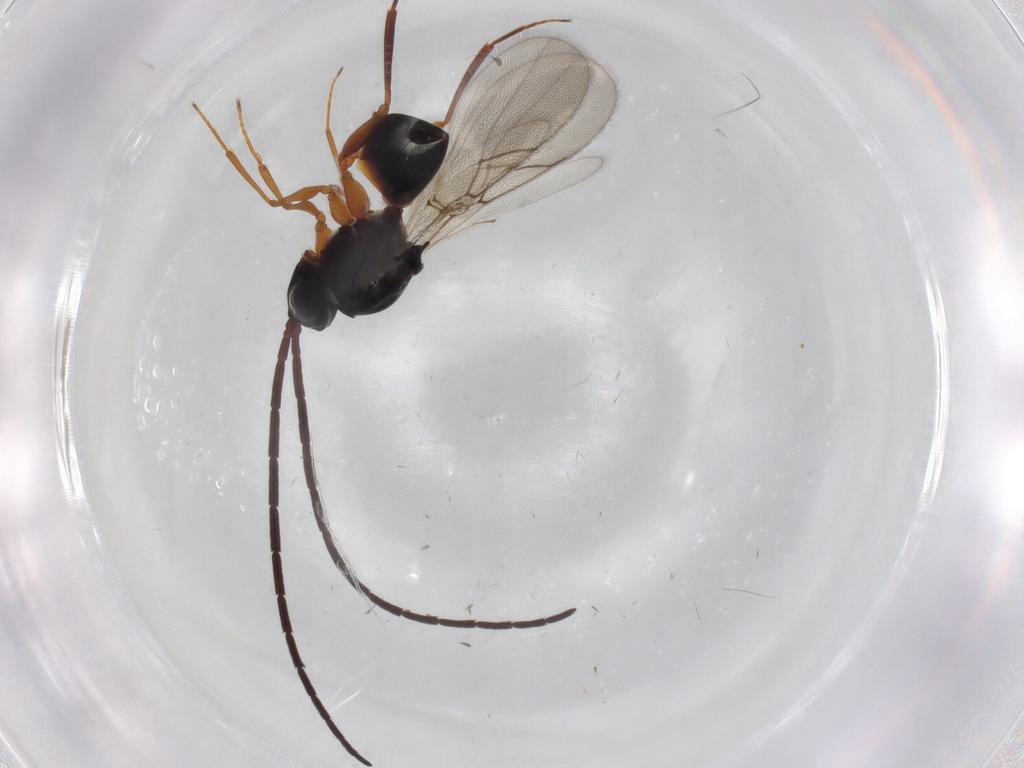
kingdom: Animalia
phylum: Arthropoda
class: Insecta
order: Hymenoptera
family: Figitidae
